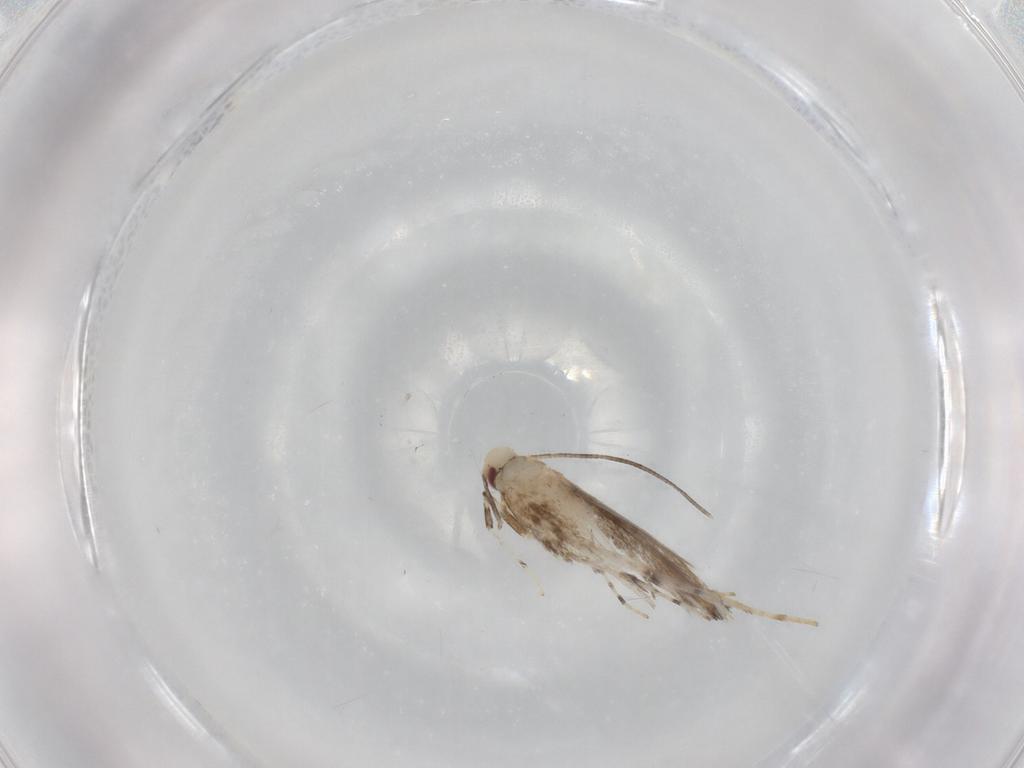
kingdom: Animalia
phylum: Arthropoda
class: Insecta
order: Lepidoptera
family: Gracillariidae
